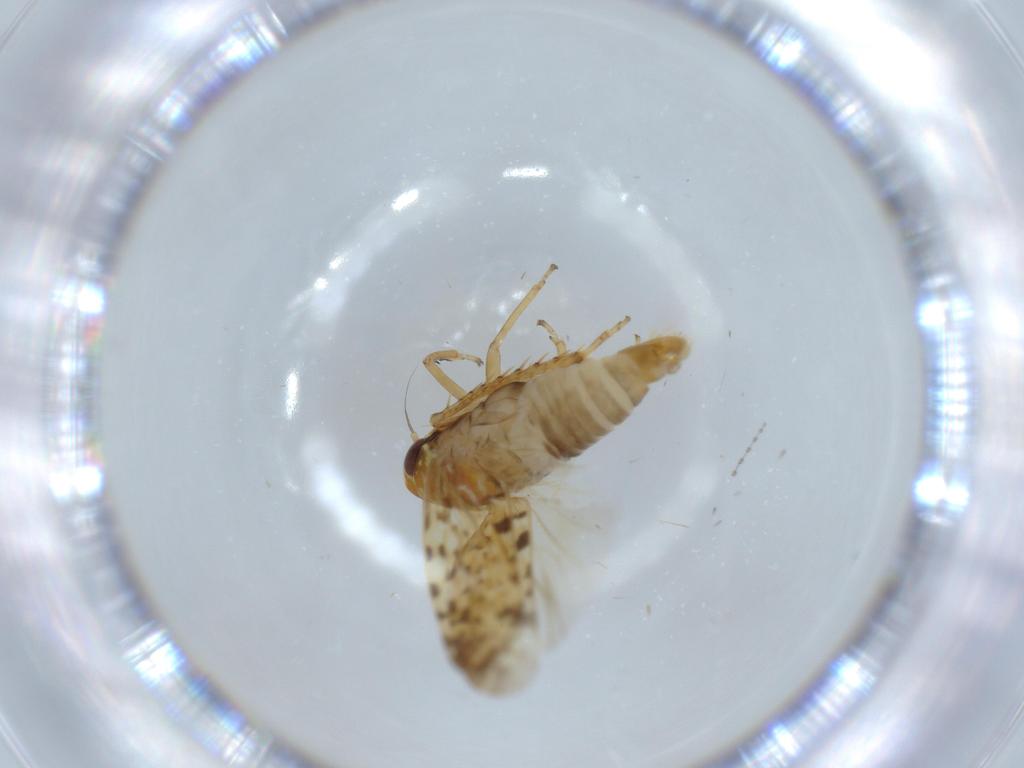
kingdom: Animalia
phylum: Arthropoda
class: Insecta
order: Hemiptera
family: Cicadellidae
